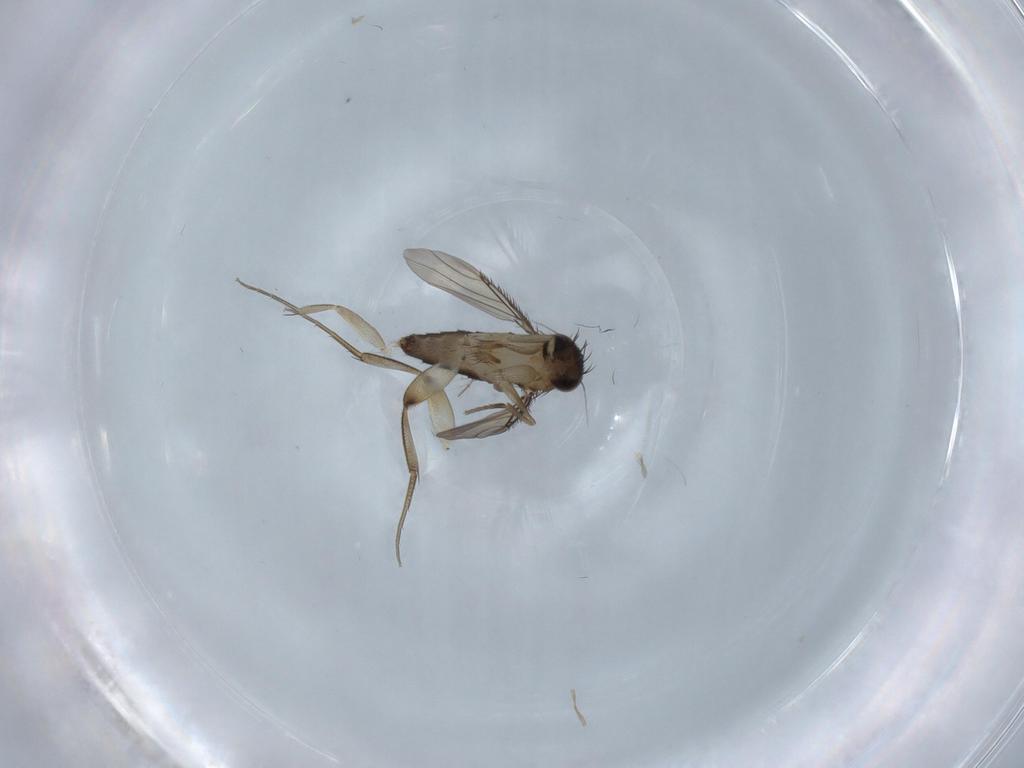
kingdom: Animalia
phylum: Arthropoda
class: Insecta
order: Diptera
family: Phoridae
